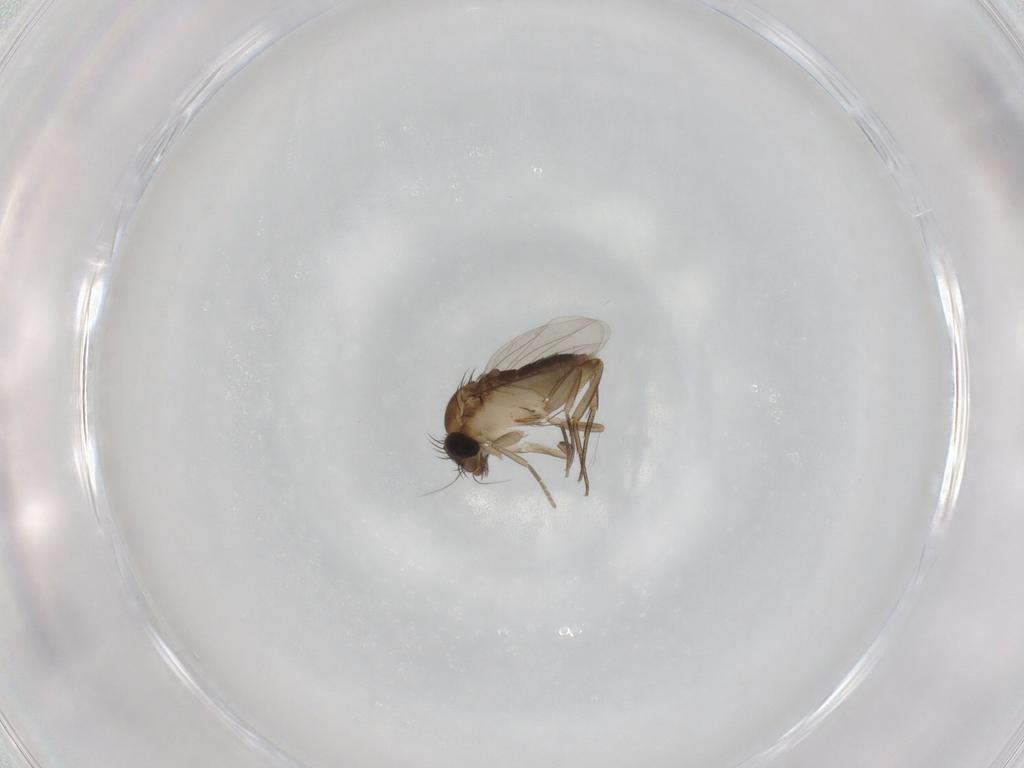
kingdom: Animalia
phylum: Arthropoda
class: Insecta
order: Diptera
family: Phoridae
